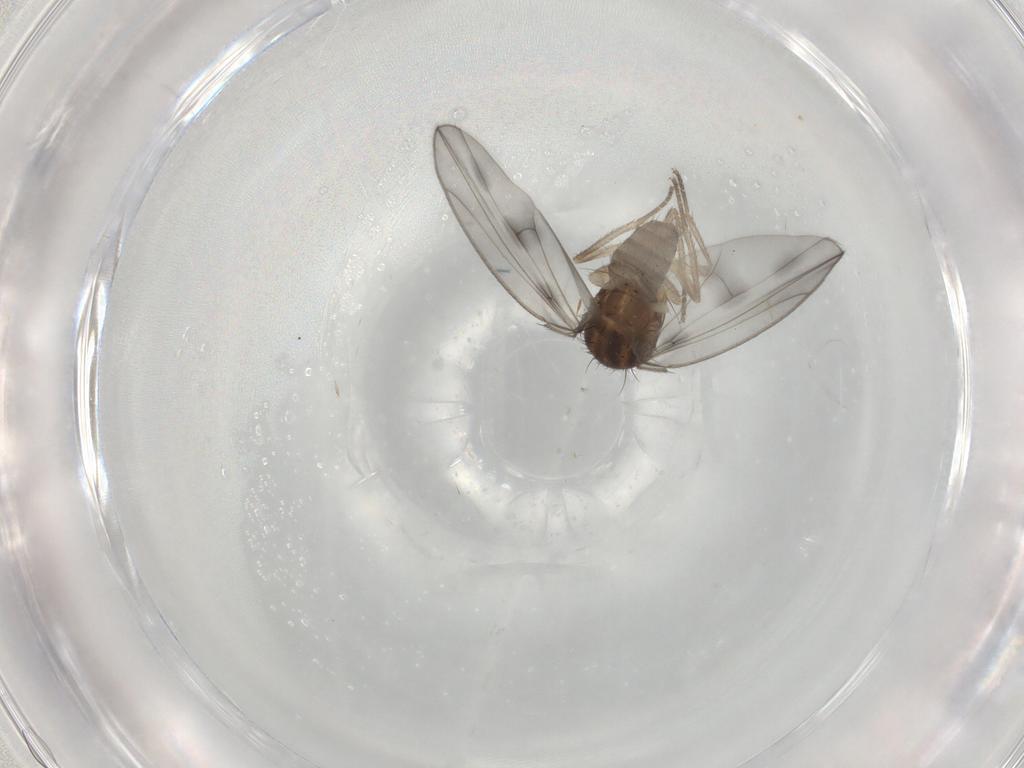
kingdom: Animalia
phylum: Arthropoda
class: Insecta
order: Diptera
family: Drosophilidae
